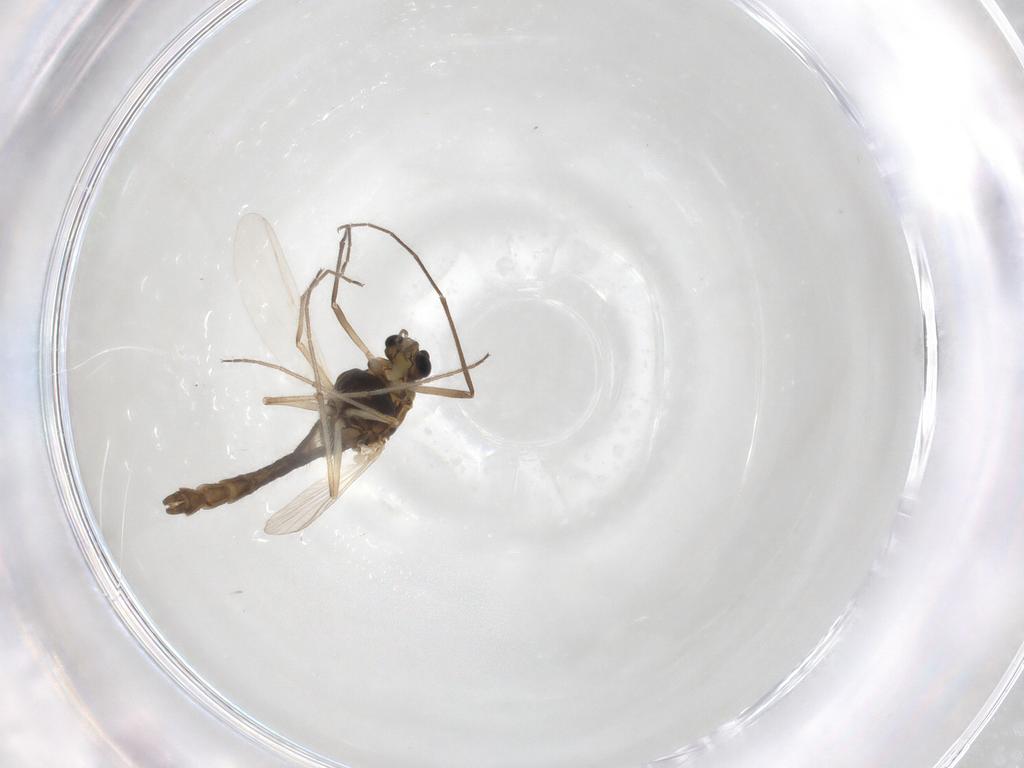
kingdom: Animalia
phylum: Arthropoda
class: Insecta
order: Diptera
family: Chironomidae
